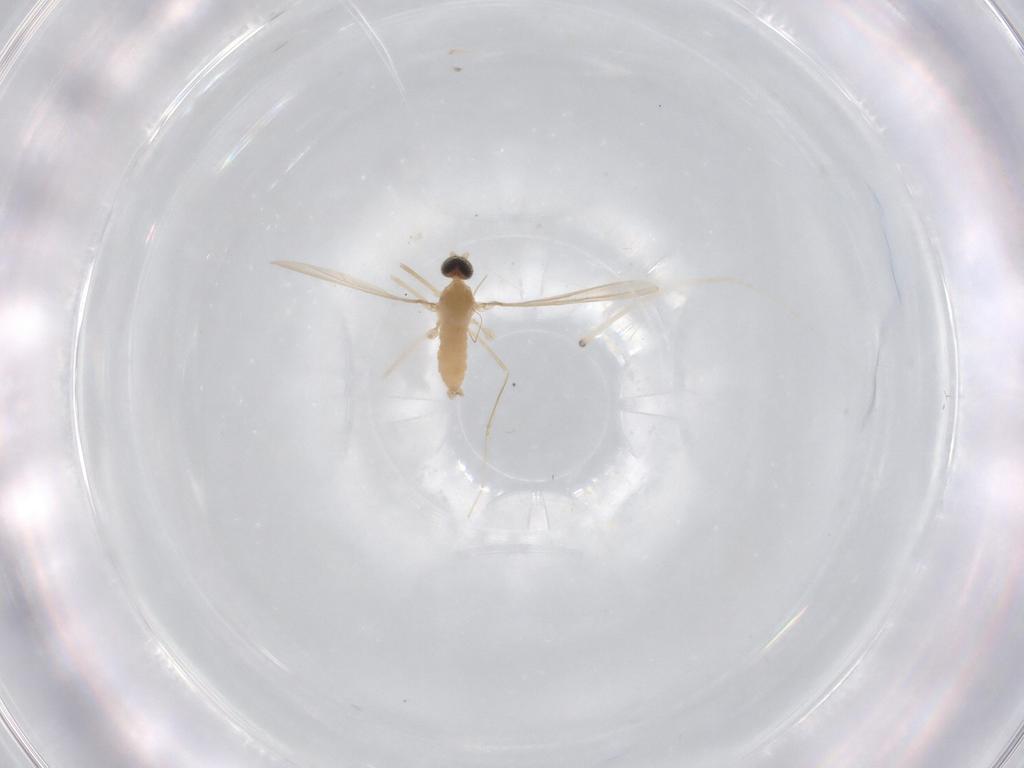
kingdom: Animalia
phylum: Arthropoda
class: Insecta
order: Diptera
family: Cecidomyiidae
